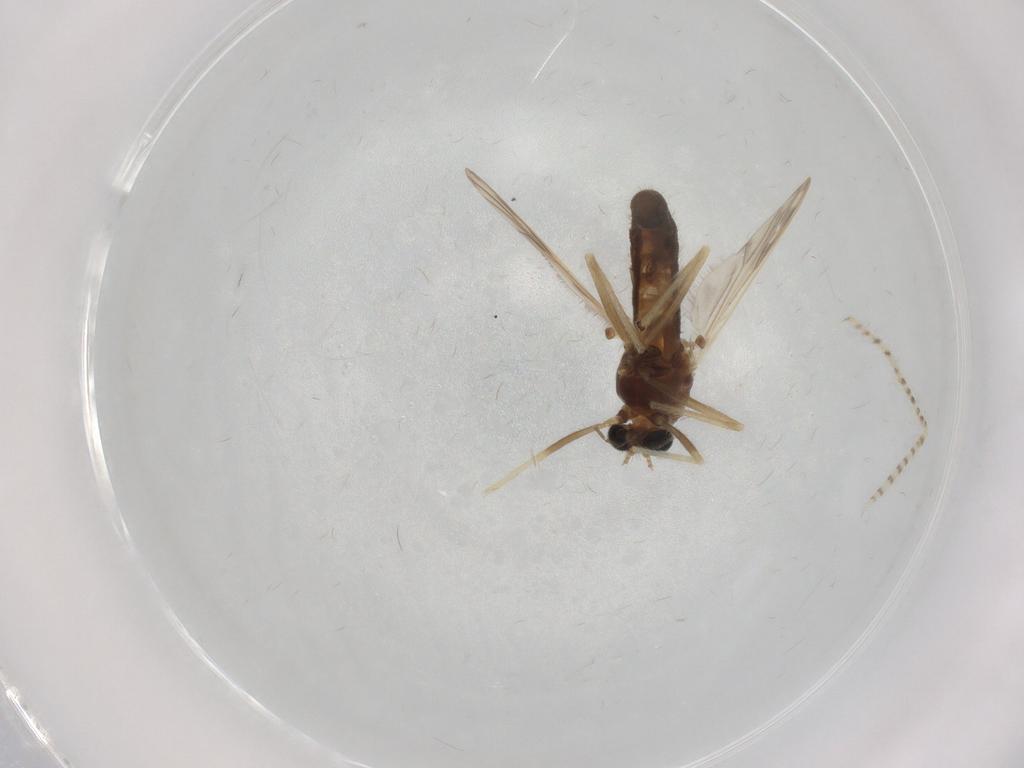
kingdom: Animalia
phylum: Arthropoda
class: Insecta
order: Diptera
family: Chironomidae
